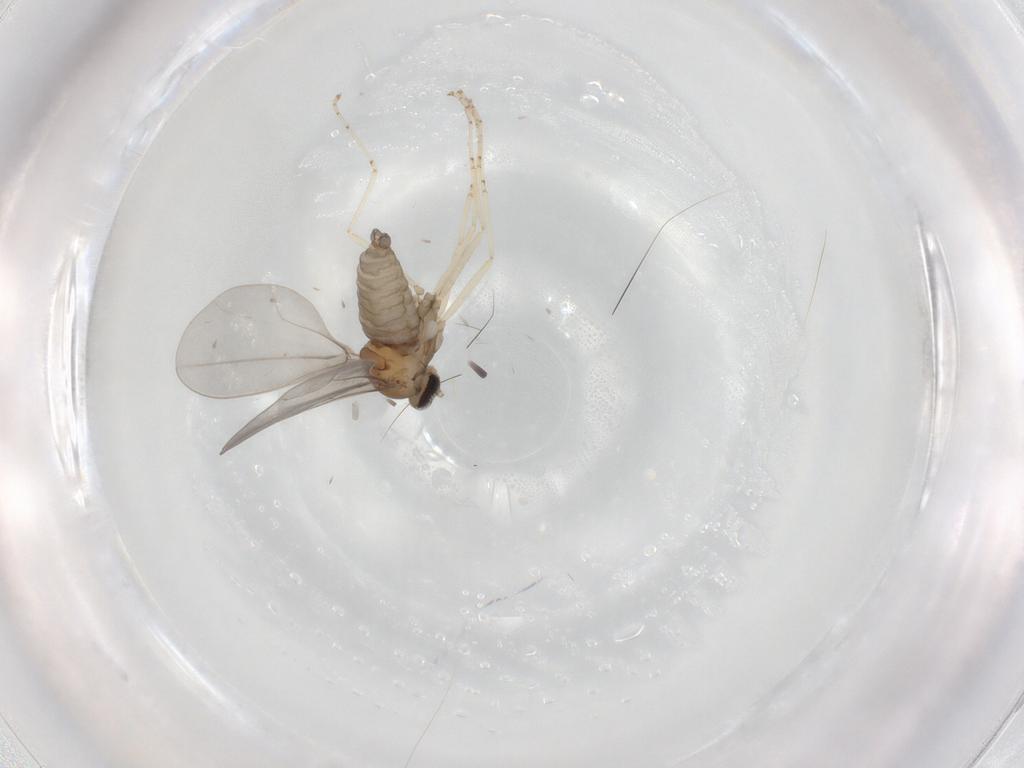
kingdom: Animalia
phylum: Arthropoda
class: Insecta
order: Diptera
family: Cecidomyiidae
